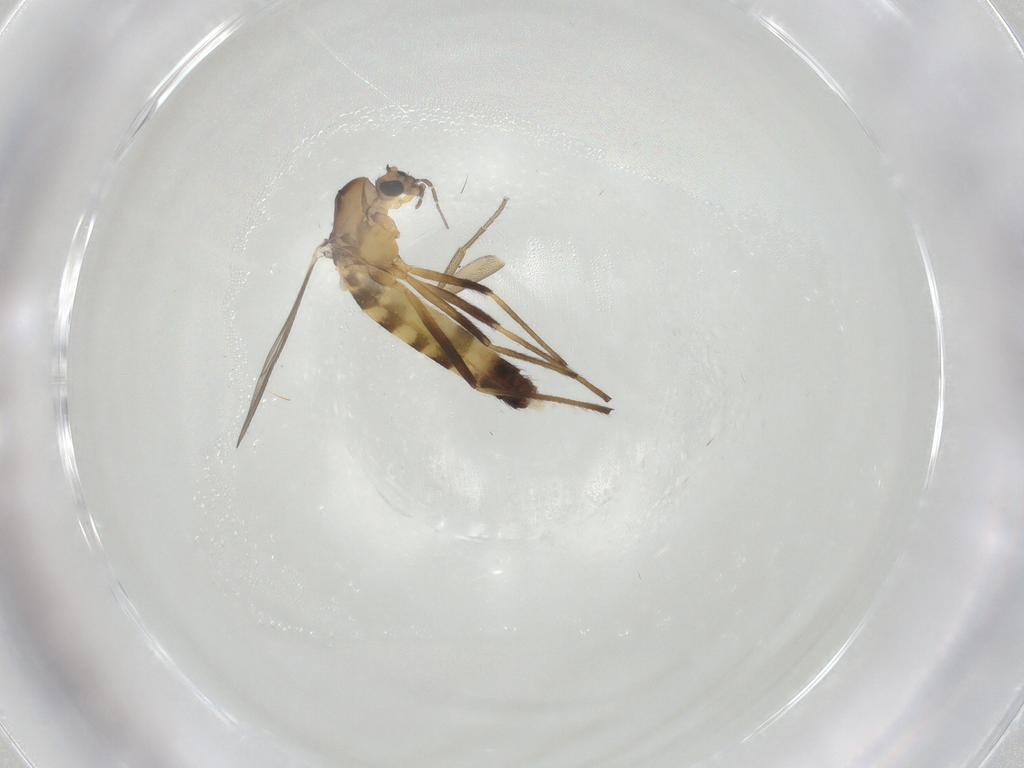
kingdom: Animalia
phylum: Arthropoda
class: Insecta
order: Diptera
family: Chironomidae
